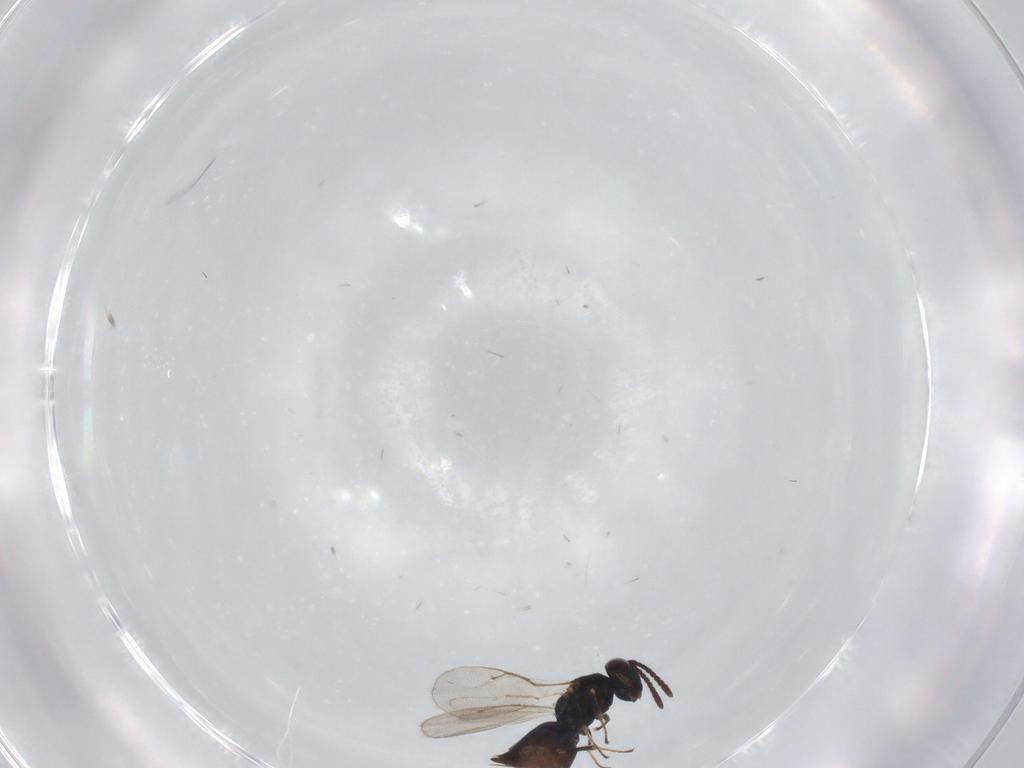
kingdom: Animalia
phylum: Arthropoda
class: Insecta
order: Hymenoptera
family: Pteromalidae
